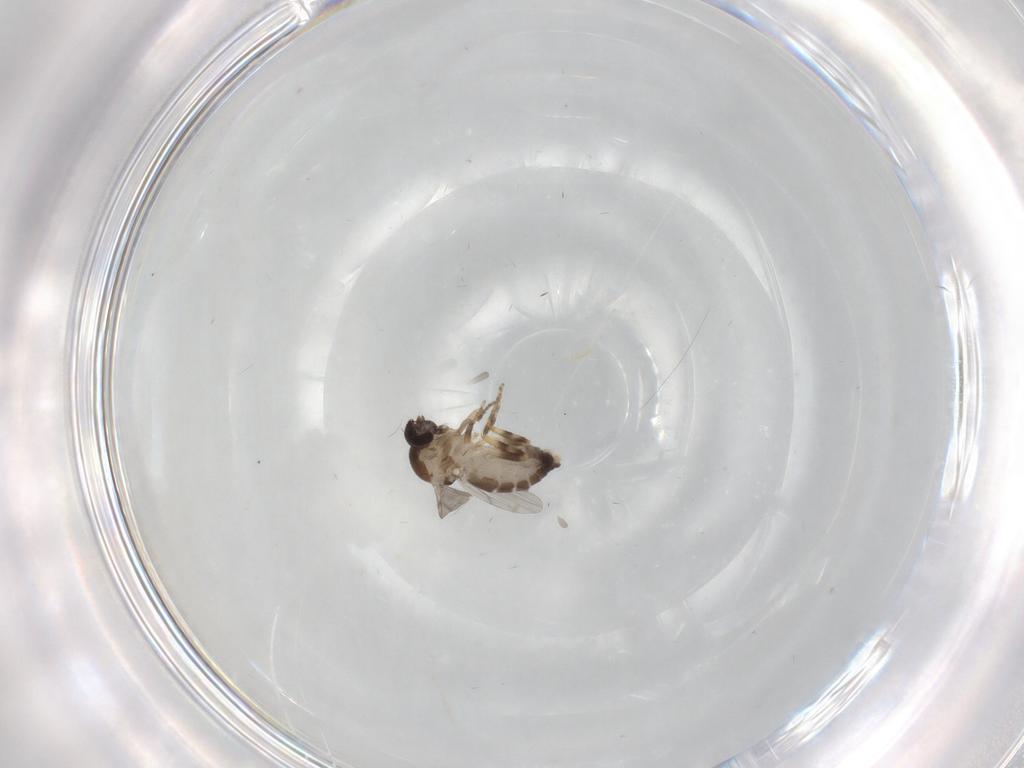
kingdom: Animalia
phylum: Arthropoda
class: Insecta
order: Diptera
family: Ceratopogonidae
